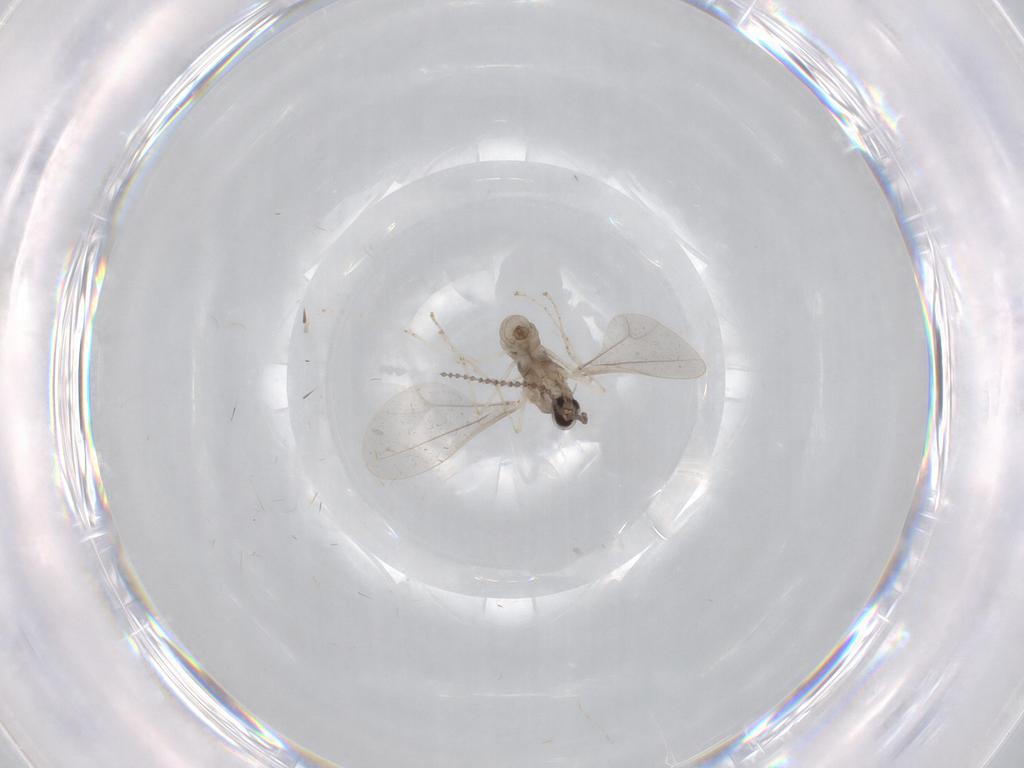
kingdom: Animalia
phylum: Arthropoda
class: Insecta
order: Diptera
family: Cecidomyiidae
